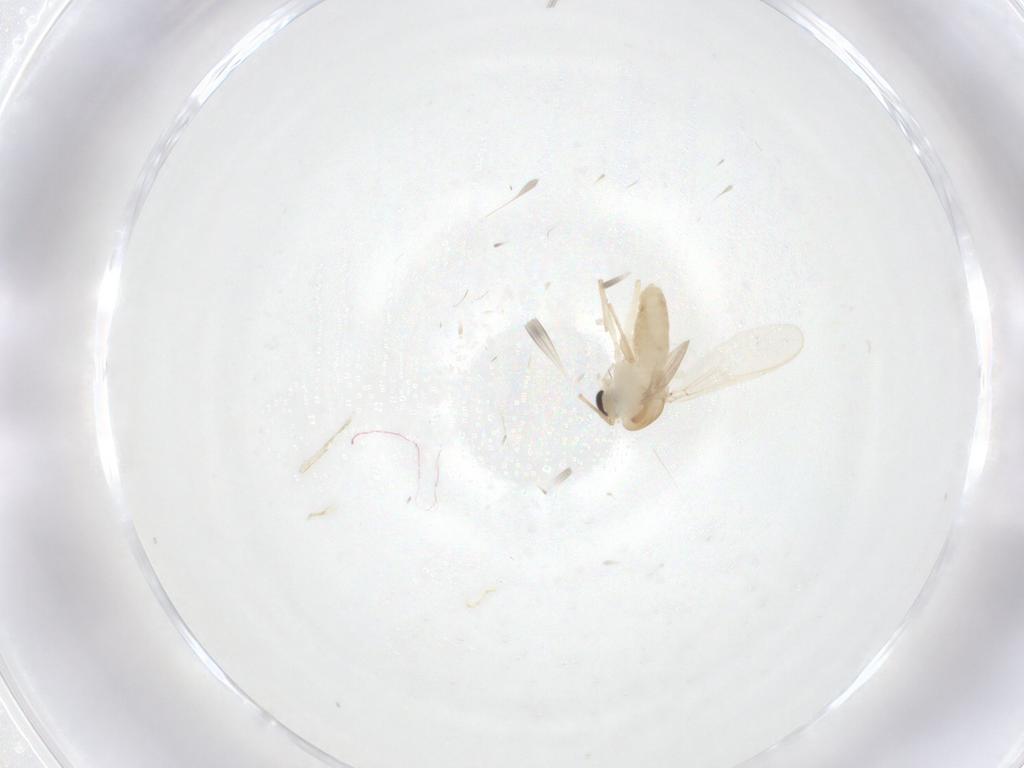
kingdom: Animalia
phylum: Arthropoda
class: Insecta
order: Diptera
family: Chironomidae
